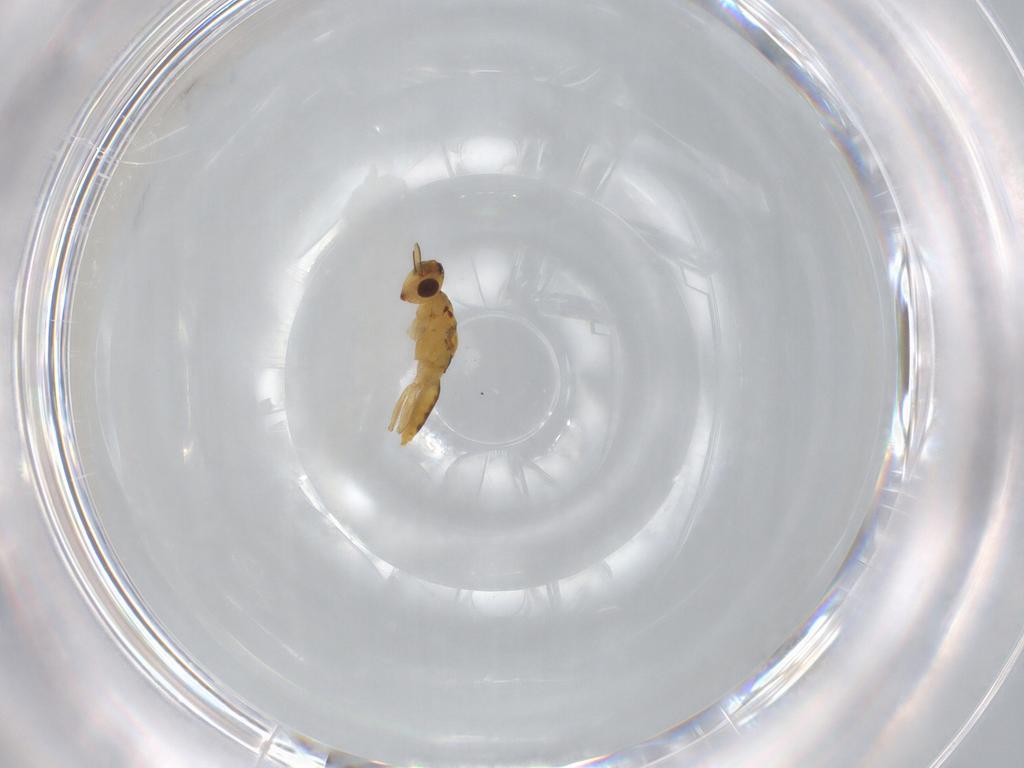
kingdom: Animalia
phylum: Arthropoda
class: Insecta
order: Hymenoptera
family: Eulophidae
